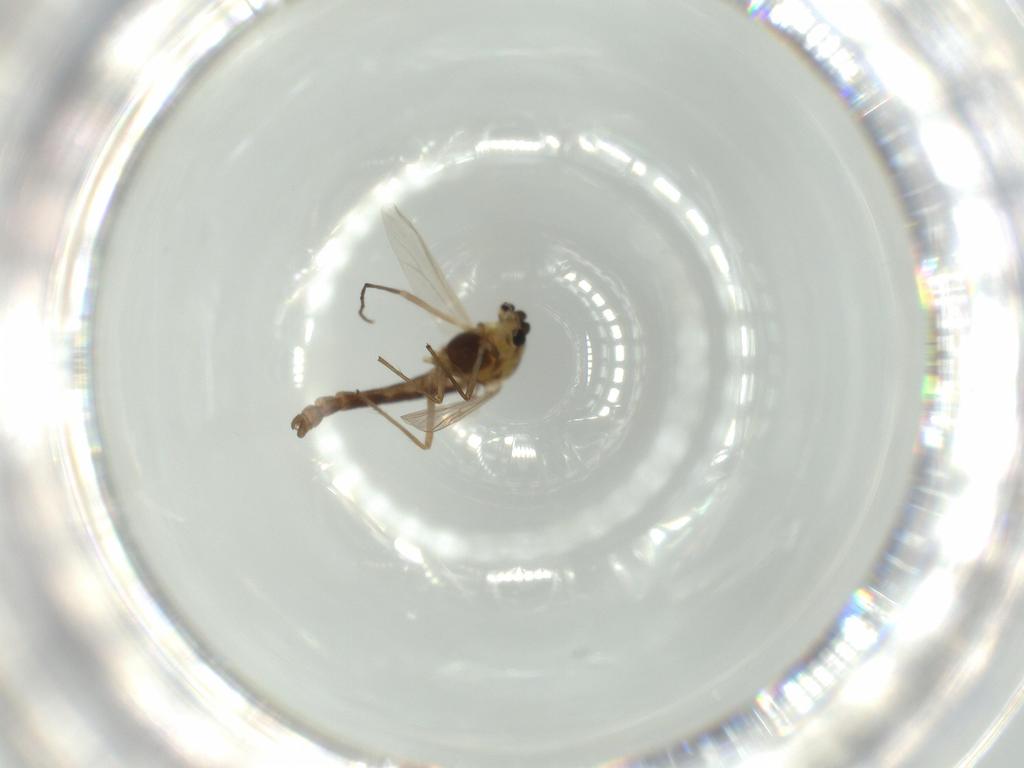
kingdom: Animalia
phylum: Arthropoda
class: Insecta
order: Diptera
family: Chironomidae
